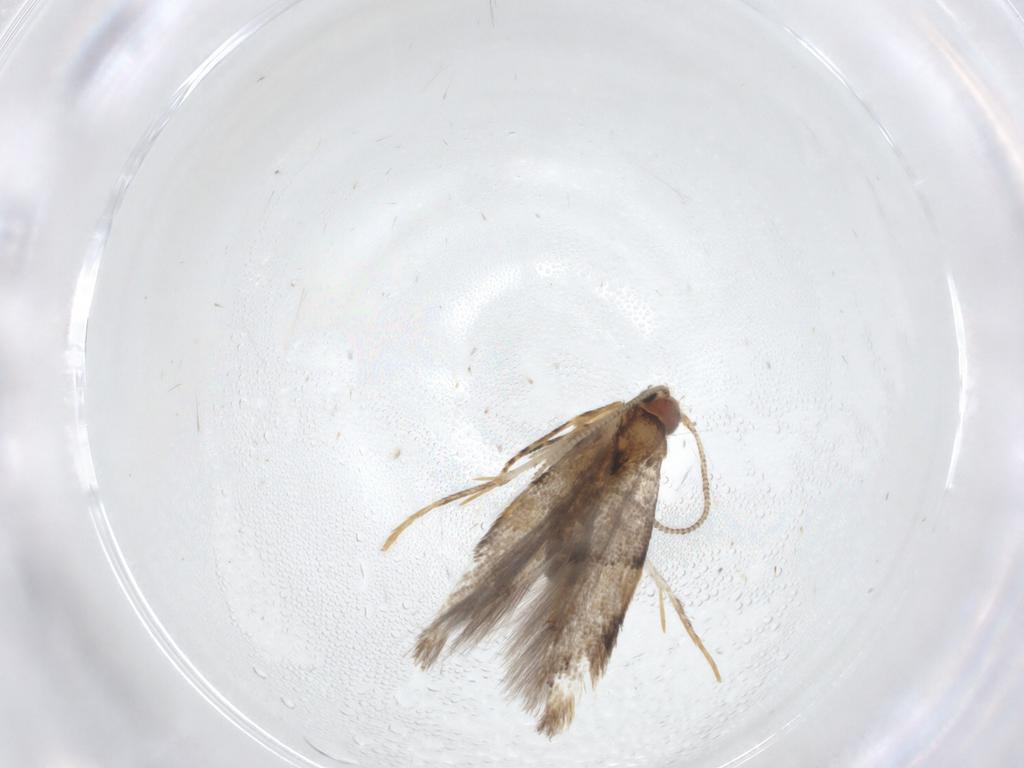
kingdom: Animalia
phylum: Arthropoda
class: Insecta
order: Lepidoptera
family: Tineidae
